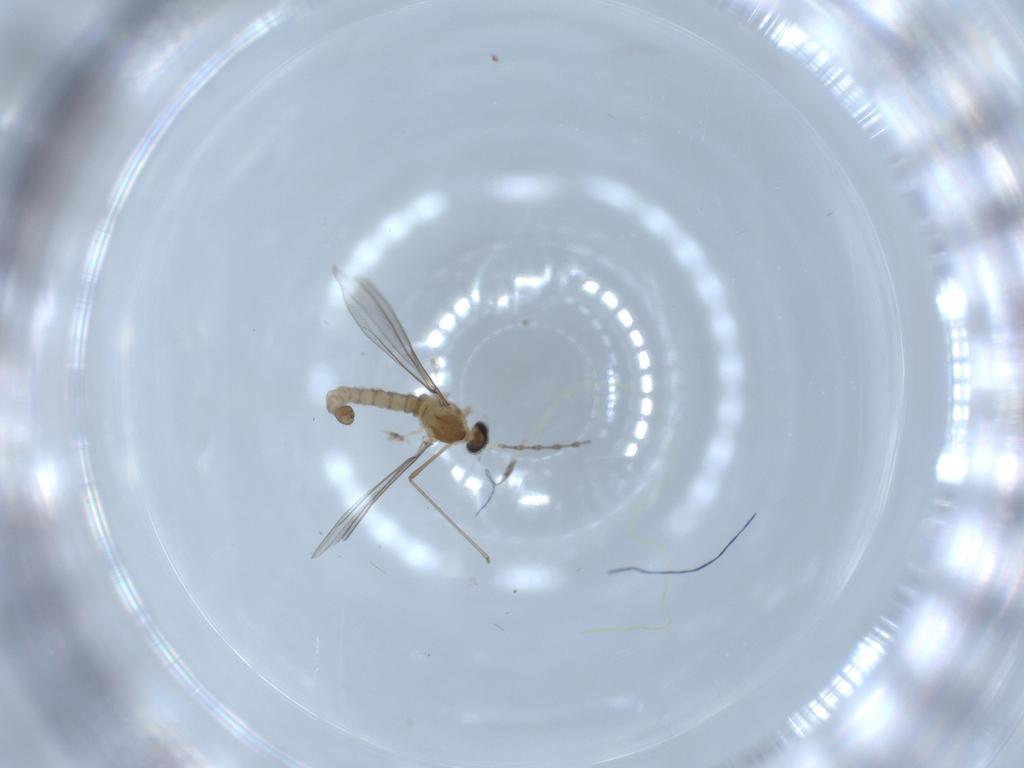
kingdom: Animalia
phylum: Arthropoda
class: Insecta
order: Diptera
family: Cecidomyiidae
